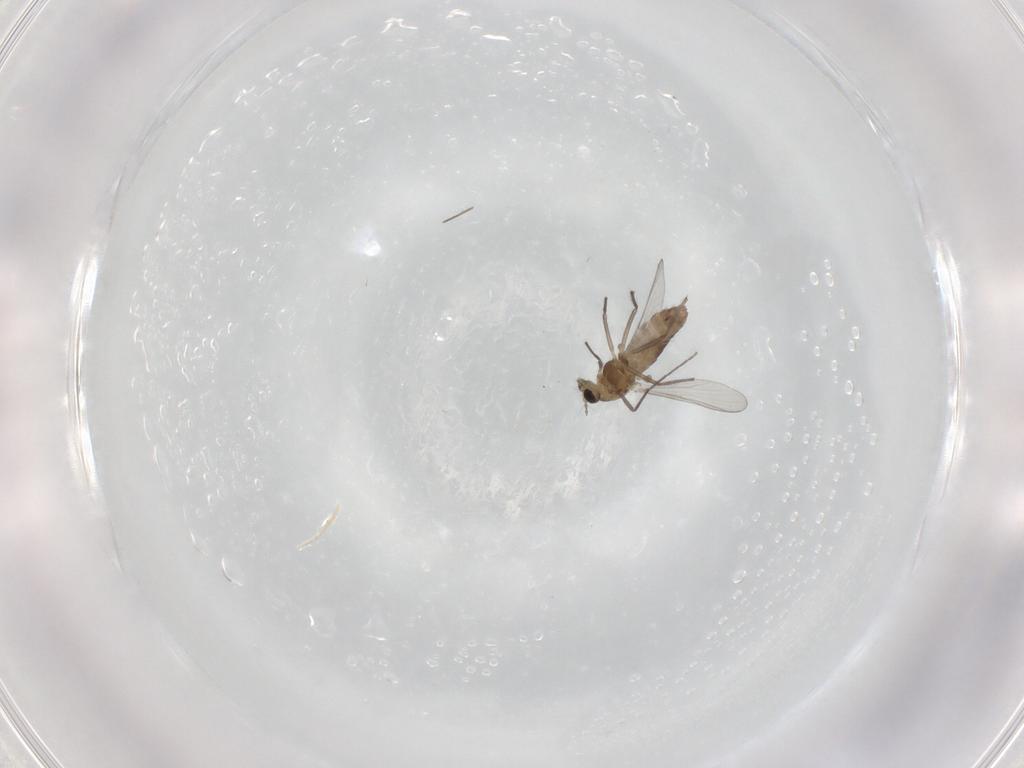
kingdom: Animalia
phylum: Arthropoda
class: Insecta
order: Diptera
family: Chironomidae
